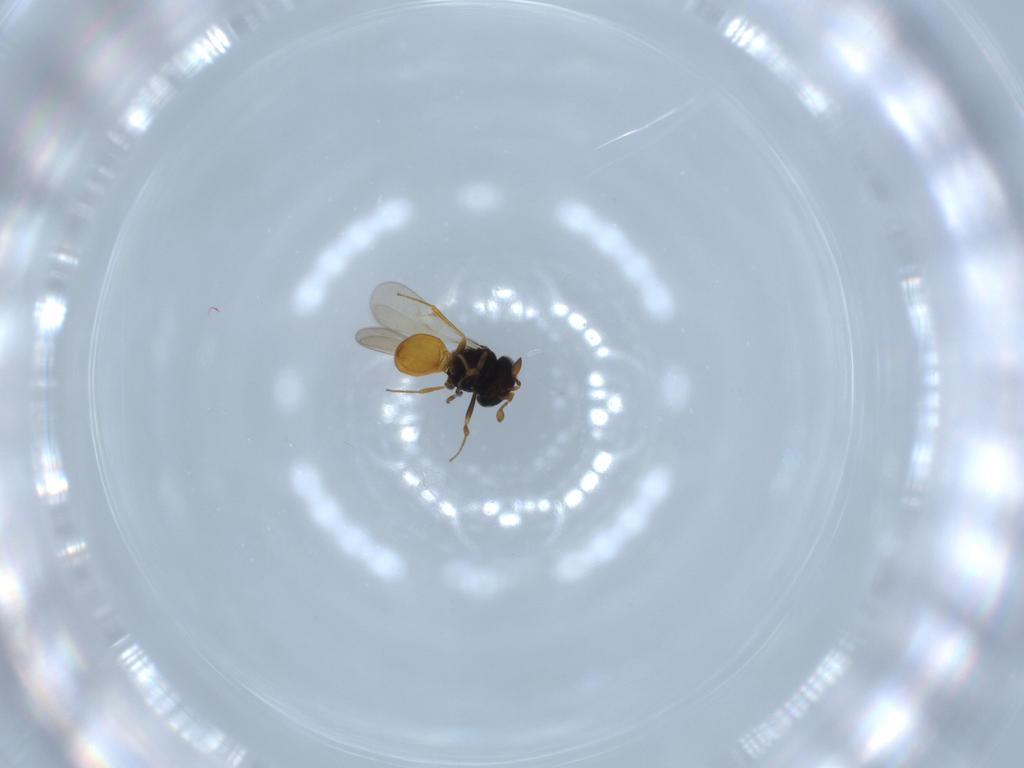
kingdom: Animalia
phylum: Arthropoda
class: Insecta
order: Hymenoptera
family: Scelionidae
